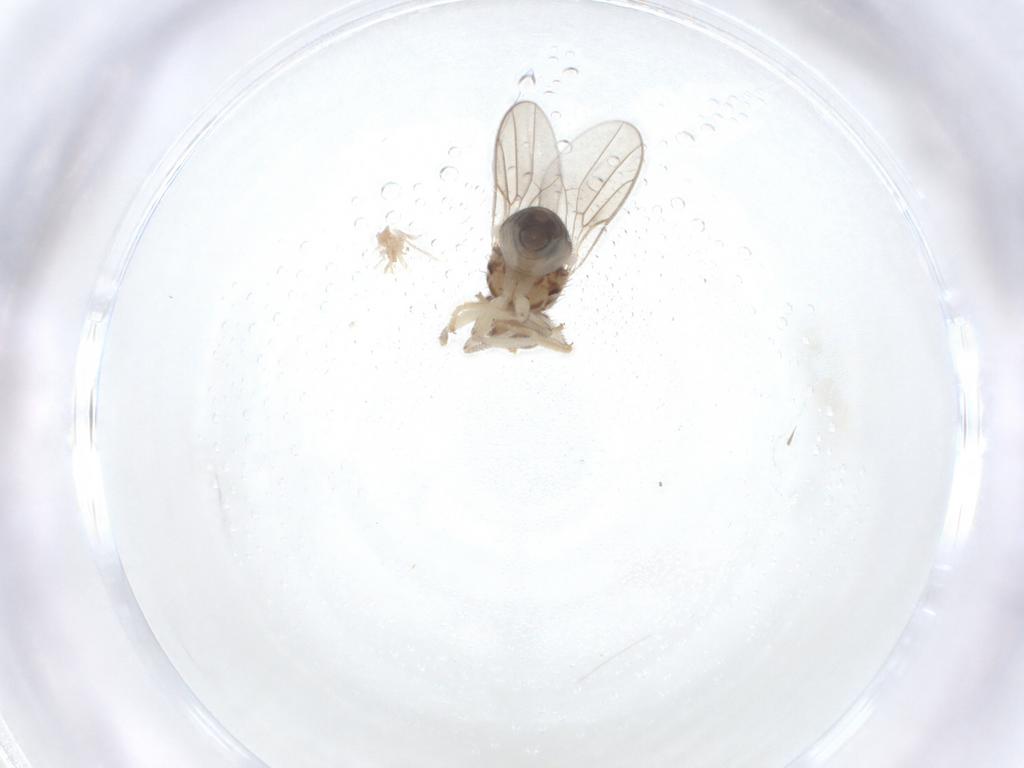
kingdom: Animalia
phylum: Arthropoda
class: Insecta
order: Diptera
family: Chloropidae
